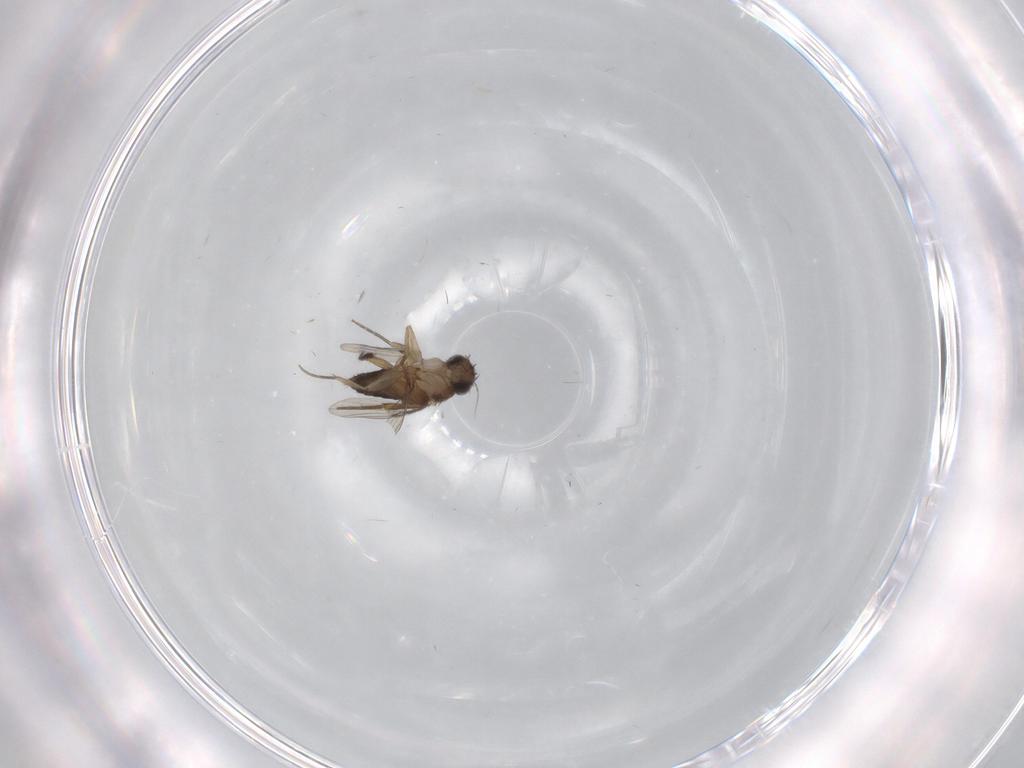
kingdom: Animalia
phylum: Arthropoda
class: Insecta
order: Diptera
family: Psychodidae
